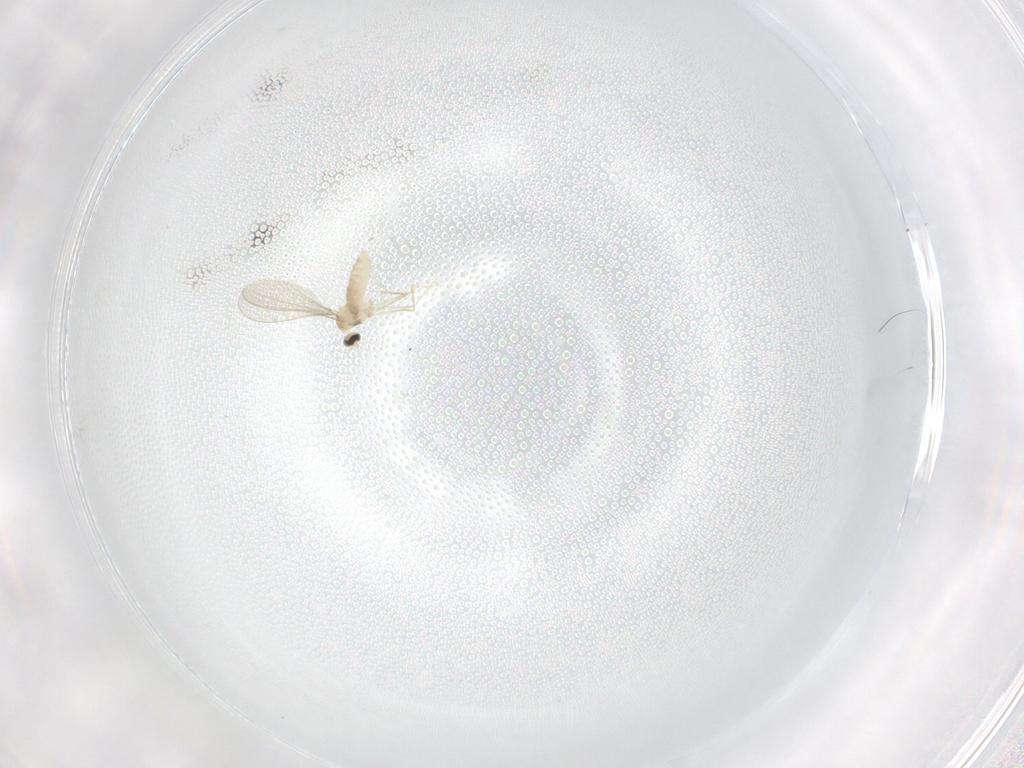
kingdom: Animalia
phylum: Arthropoda
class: Insecta
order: Diptera
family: Cecidomyiidae
